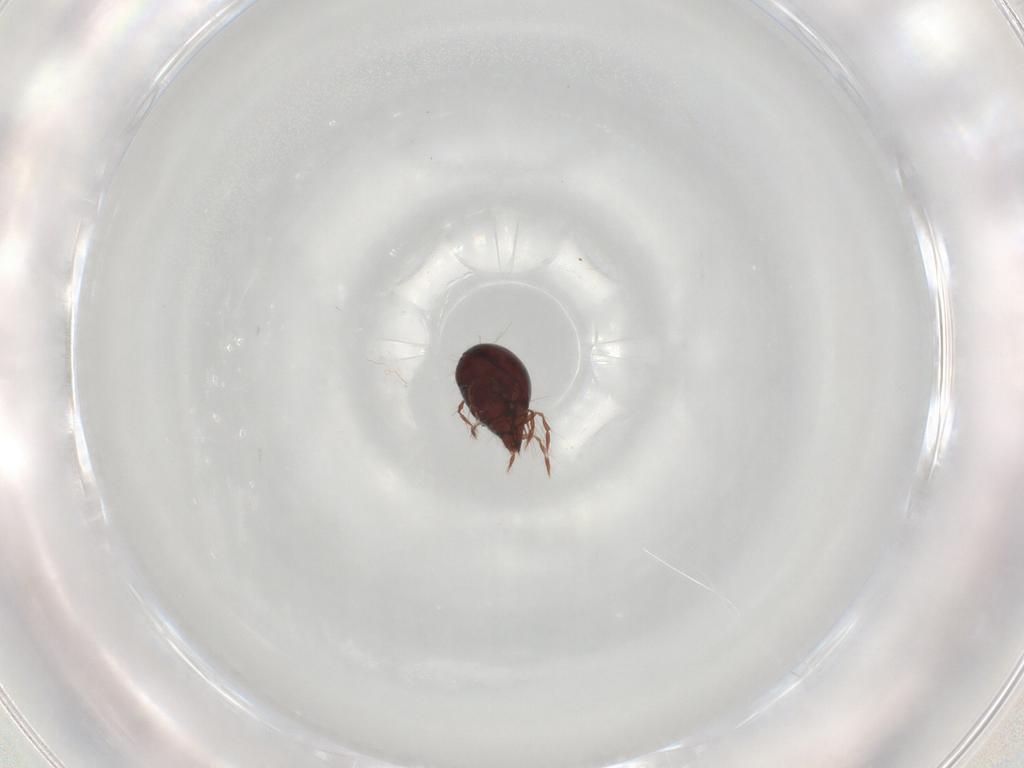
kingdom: Animalia
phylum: Arthropoda
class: Arachnida
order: Sarcoptiformes
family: Ceratoppiidae
